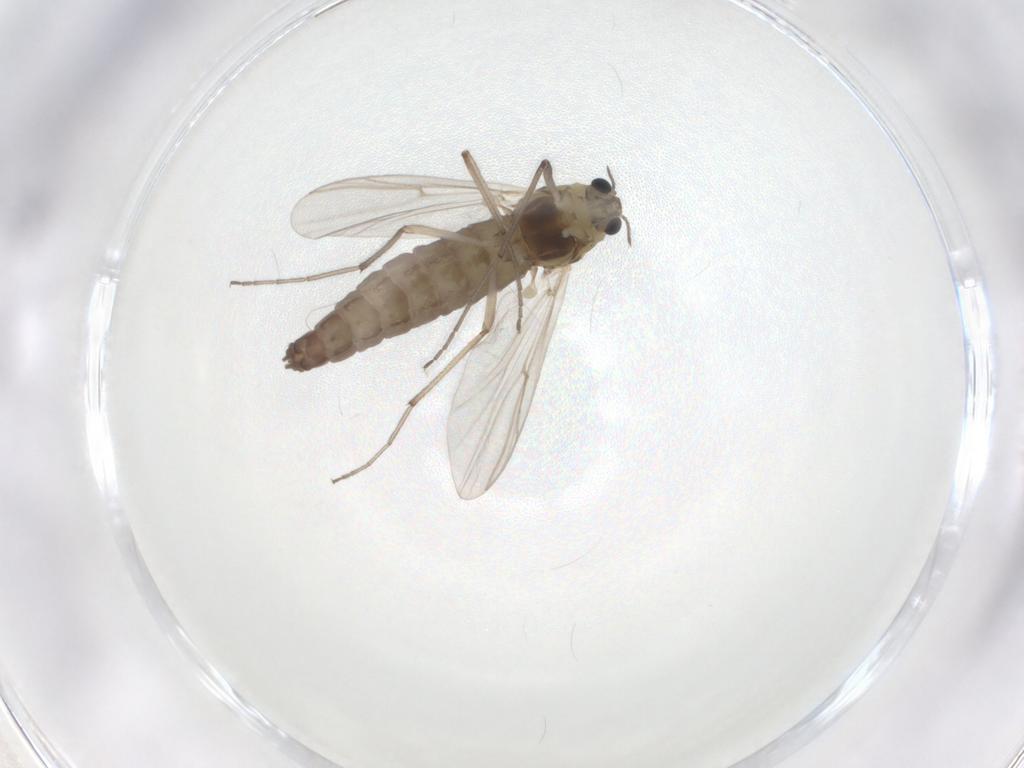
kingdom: Animalia
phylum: Arthropoda
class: Insecta
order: Diptera
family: Chironomidae
